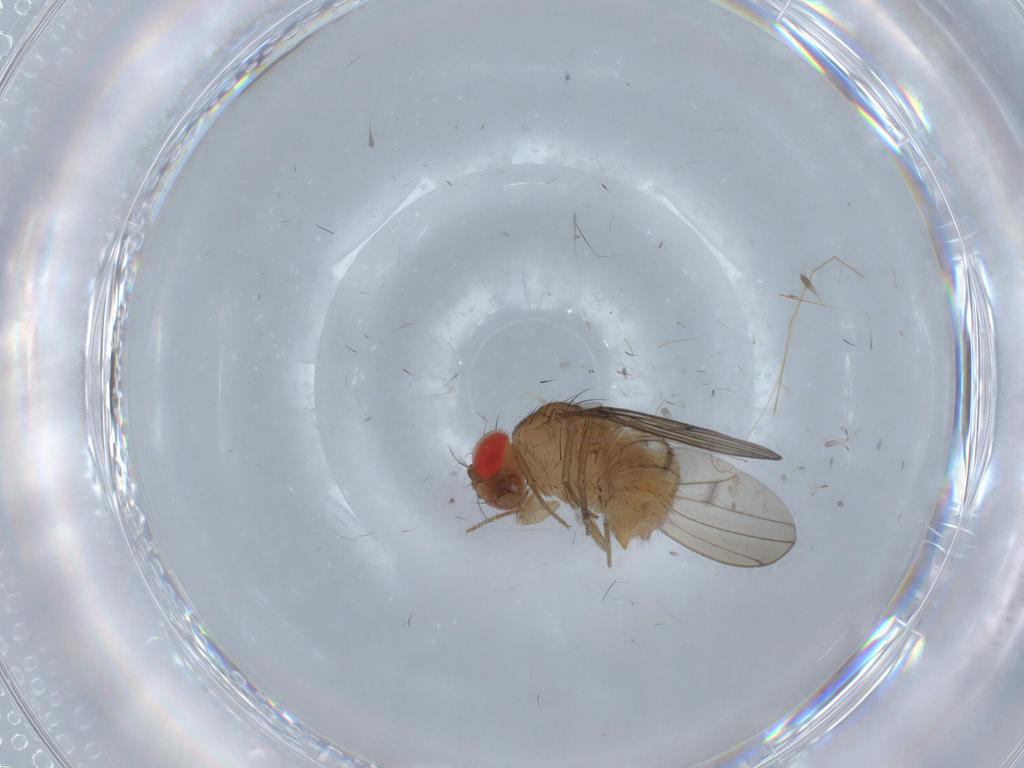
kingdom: Animalia
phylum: Arthropoda
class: Insecta
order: Diptera
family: Drosophilidae
